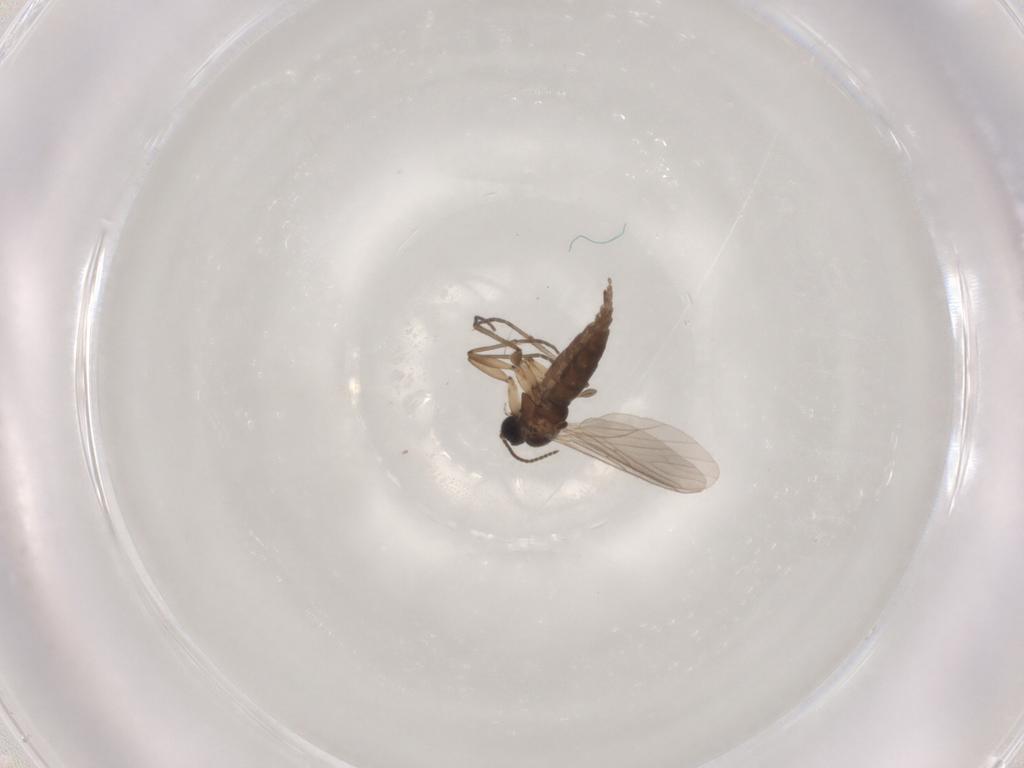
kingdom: Animalia
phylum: Arthropoda
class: Insecta
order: Diptera
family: Sciaridae
